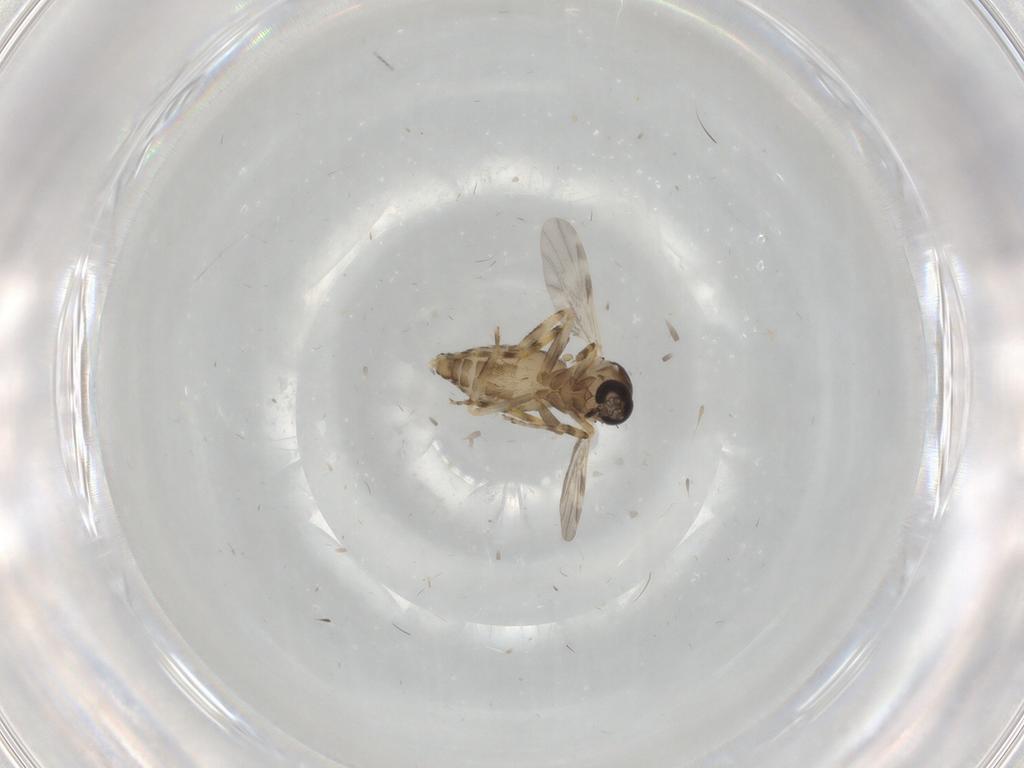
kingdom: Animalia
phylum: Arthropoda
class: Insecta
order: Diptera
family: Ceratopogonidae
